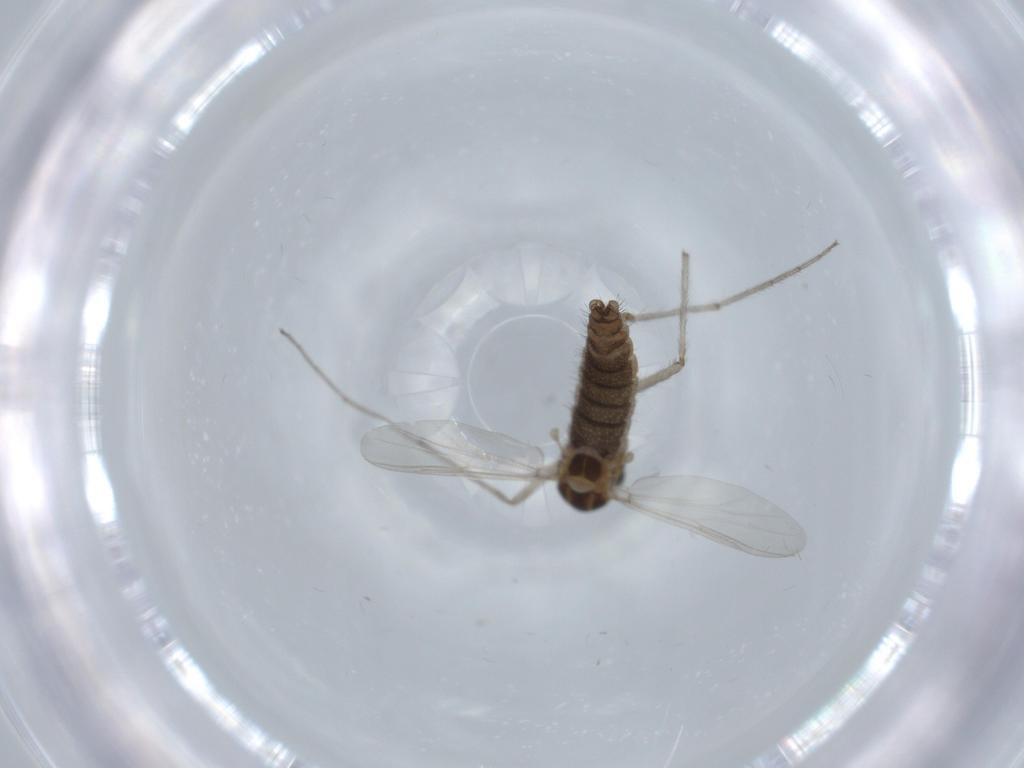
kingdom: Animalia
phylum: Arthropoda
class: Insecta
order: Diptera
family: Chironomidae
